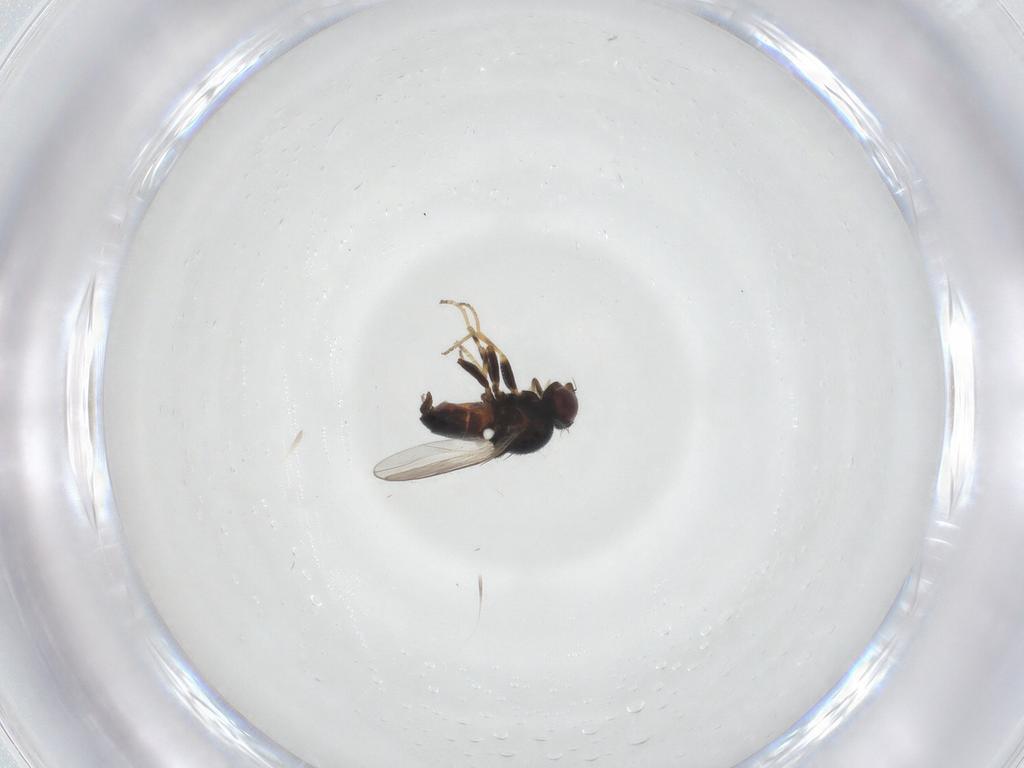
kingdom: Animalia
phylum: Arthropoda
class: Insecta
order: Diptera
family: Chloropidae
